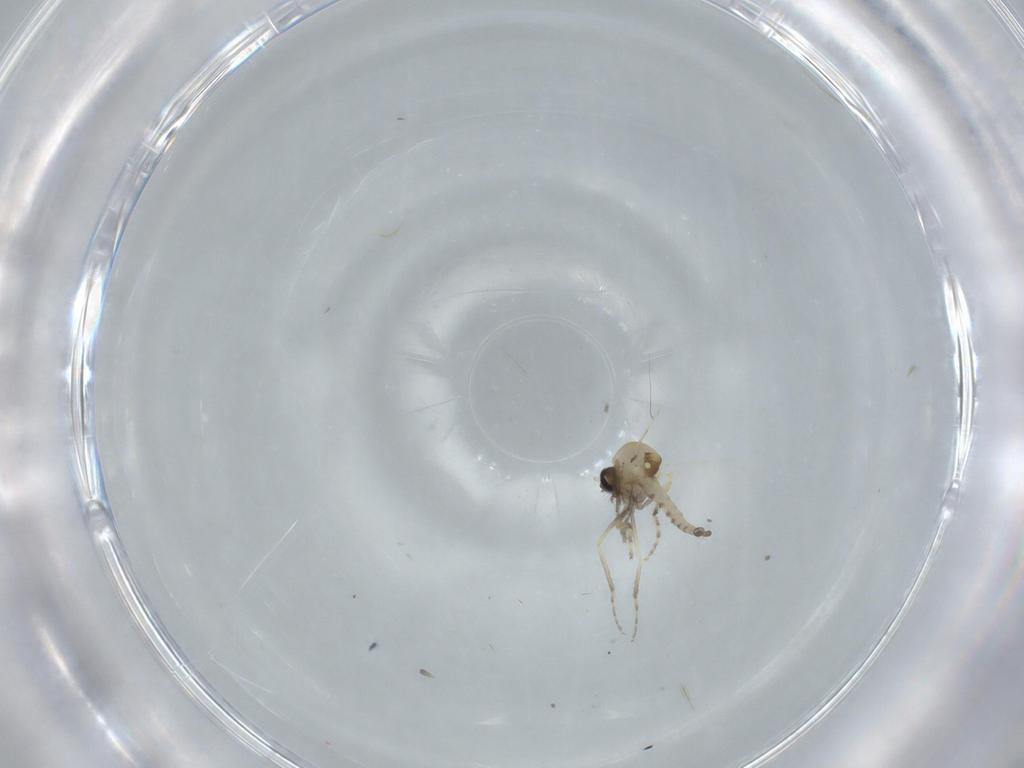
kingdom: Animalia
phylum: Arthropoda
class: Insecta
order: Diptera
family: Ceratopogonidae
